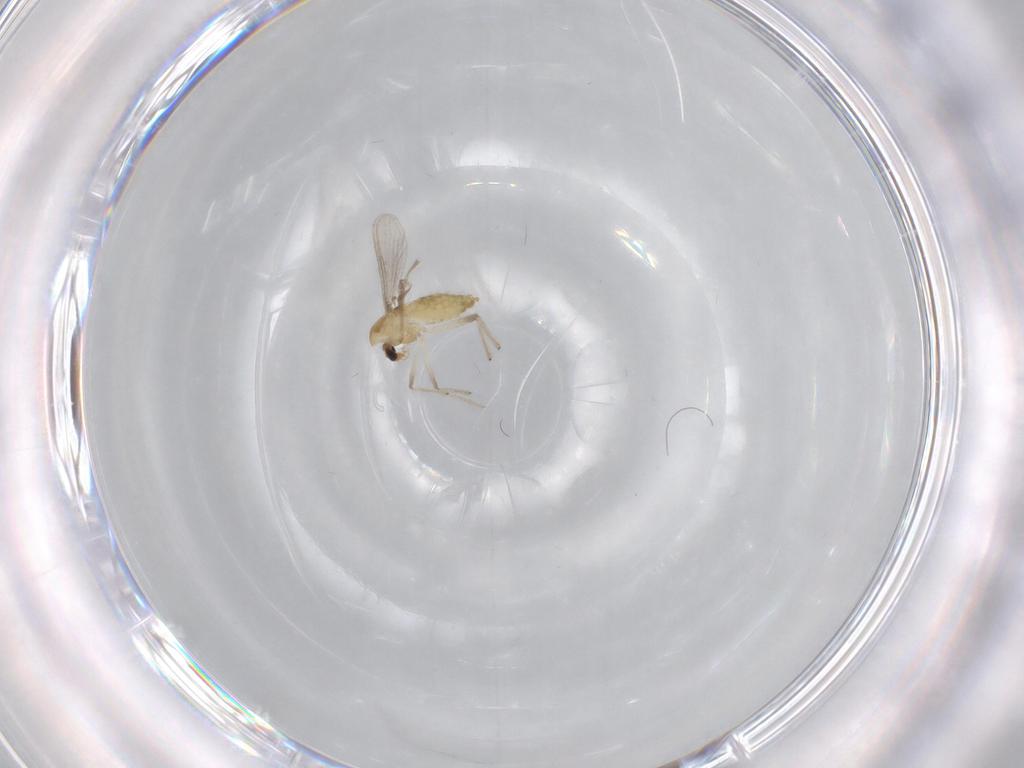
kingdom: Animalia
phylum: Arthropoda
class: Insecta
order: Diptera
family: Chironomidae
